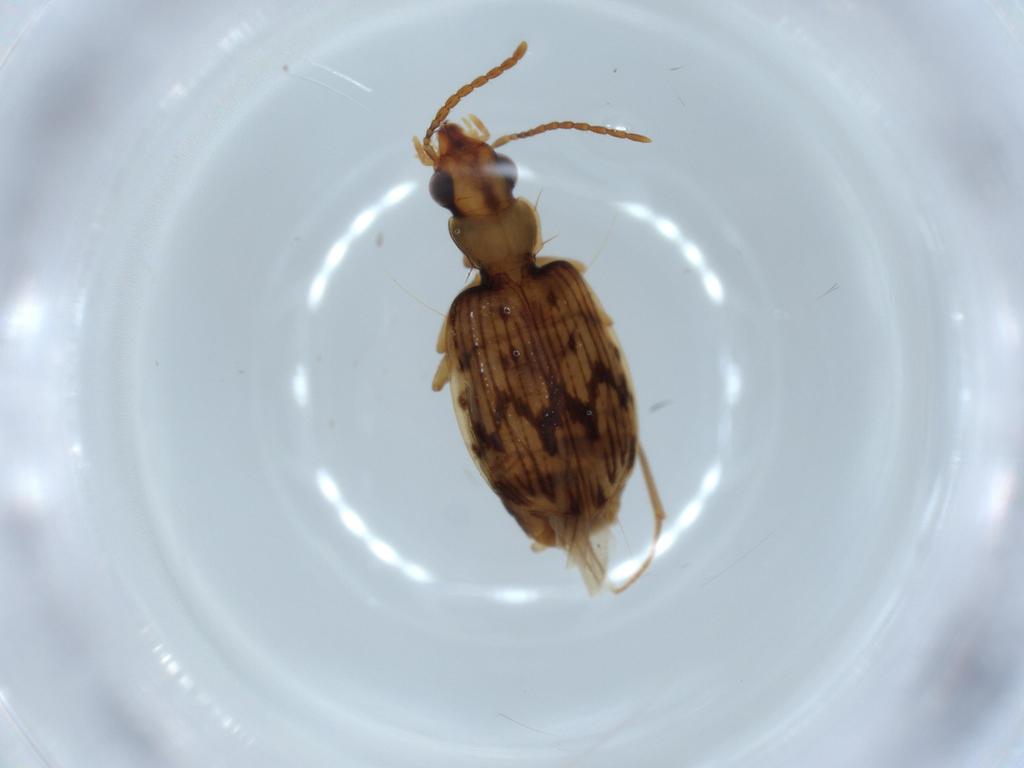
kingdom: Animalia
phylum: Arthropoda
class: Insecta
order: Coleoptera
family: Carabidae
